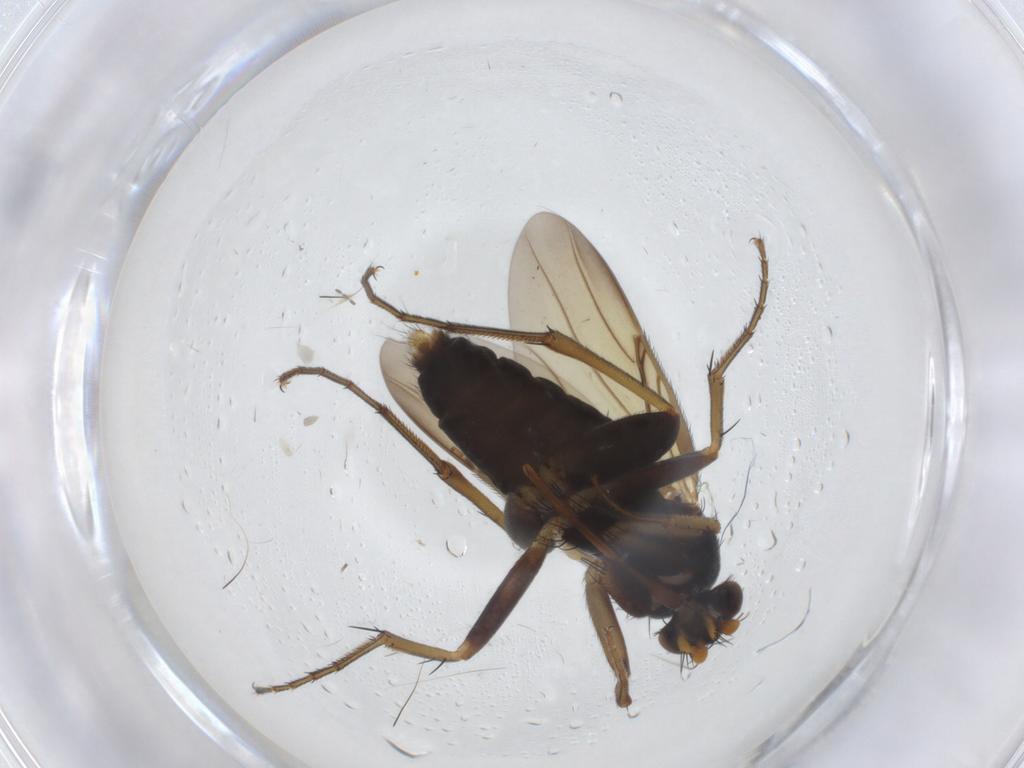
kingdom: Animalia
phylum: Arthropoda
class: Insecta
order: Diptera
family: Phoridae
